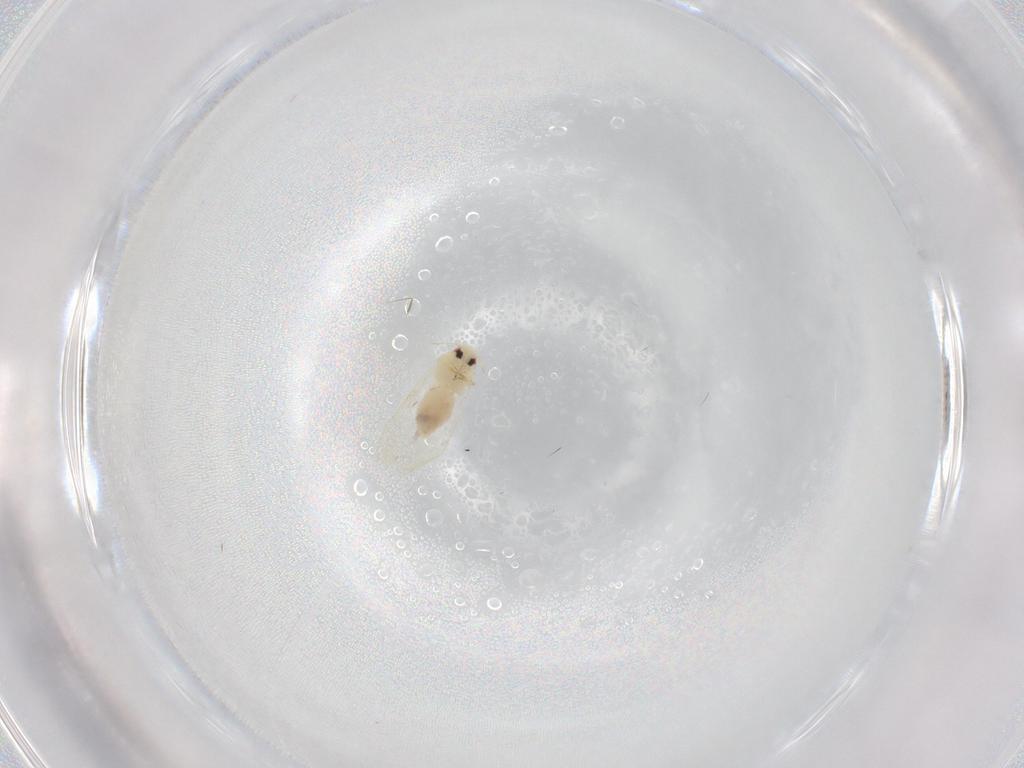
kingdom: Animalia
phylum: Arthropoda
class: Insecta
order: Hemiptera
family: Aleyrodidae
